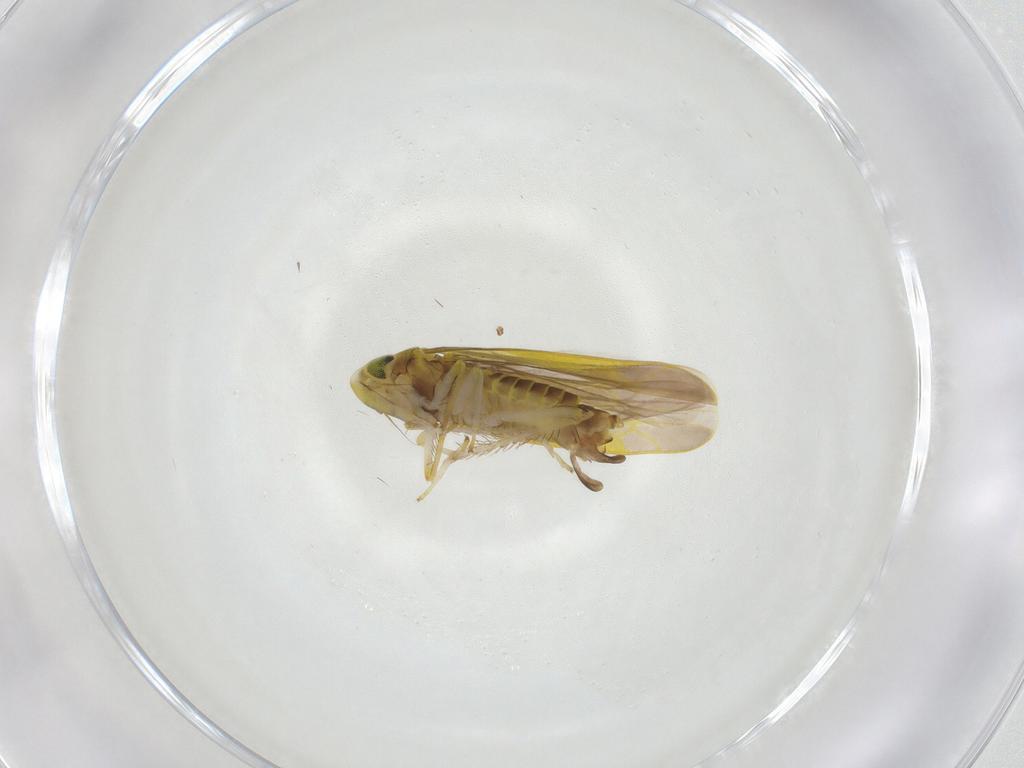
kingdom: Animalia
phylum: Arthropoda
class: Insecta
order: Hemiptera
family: Cicadellidae
